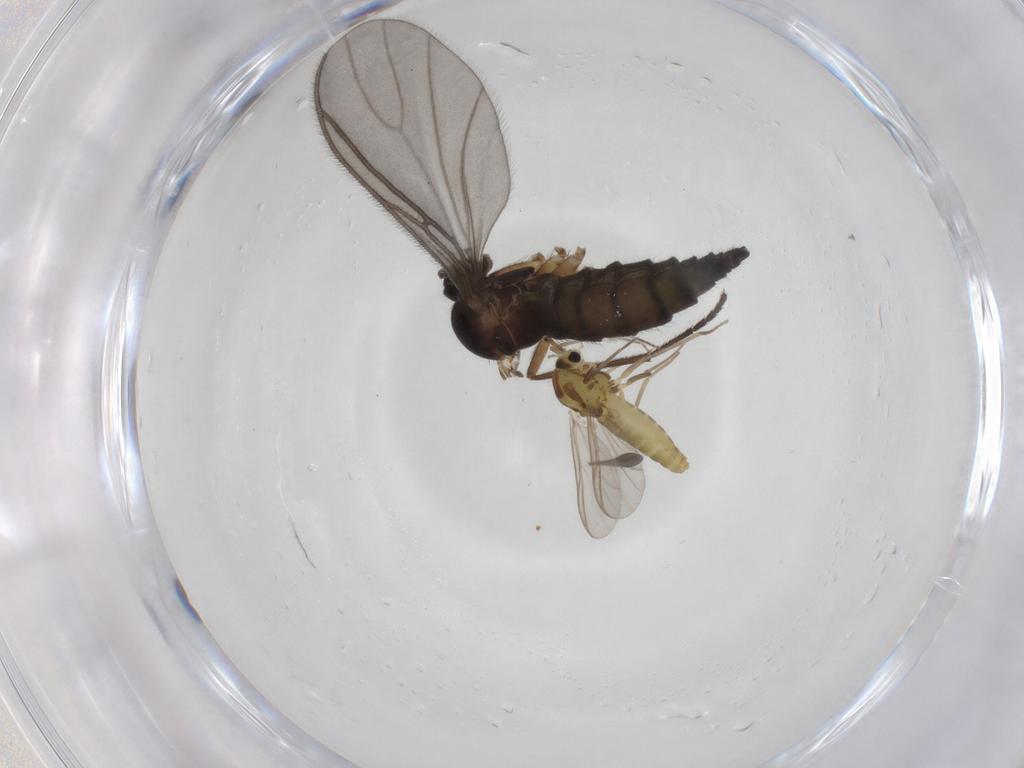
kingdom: Animalia
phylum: Arthropoda
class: Insecta
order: Diptera
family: Sciaridae
